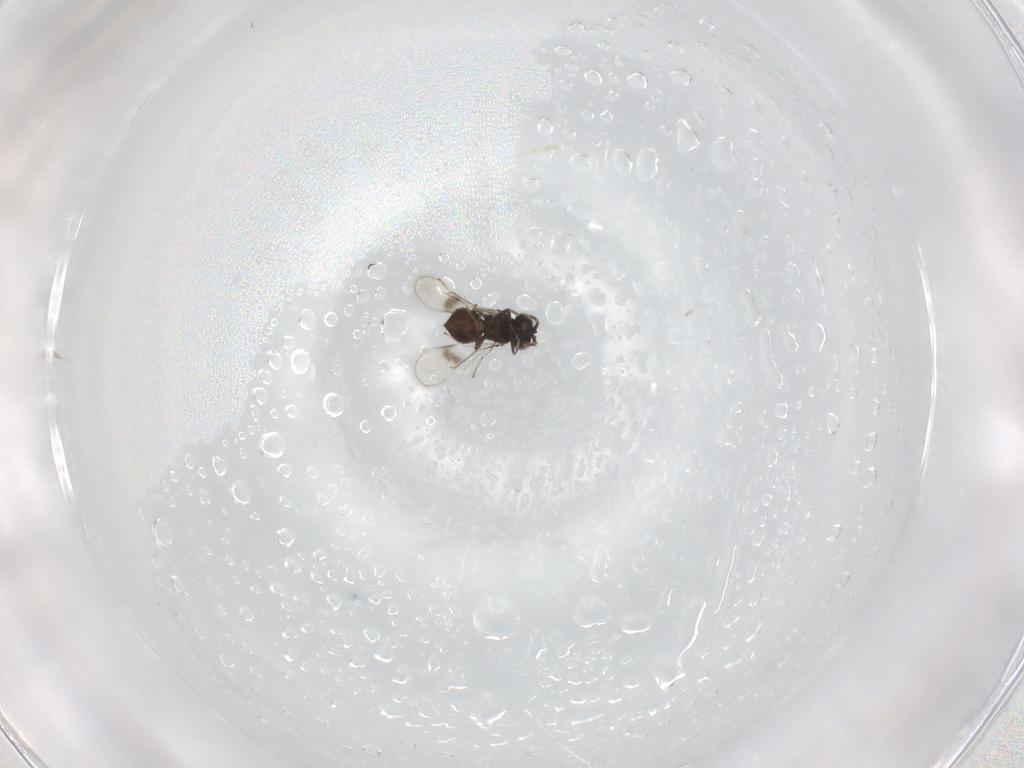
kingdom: Animalia
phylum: Arthropoda
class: Insecta
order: Hymenoptera
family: Eulophidae
